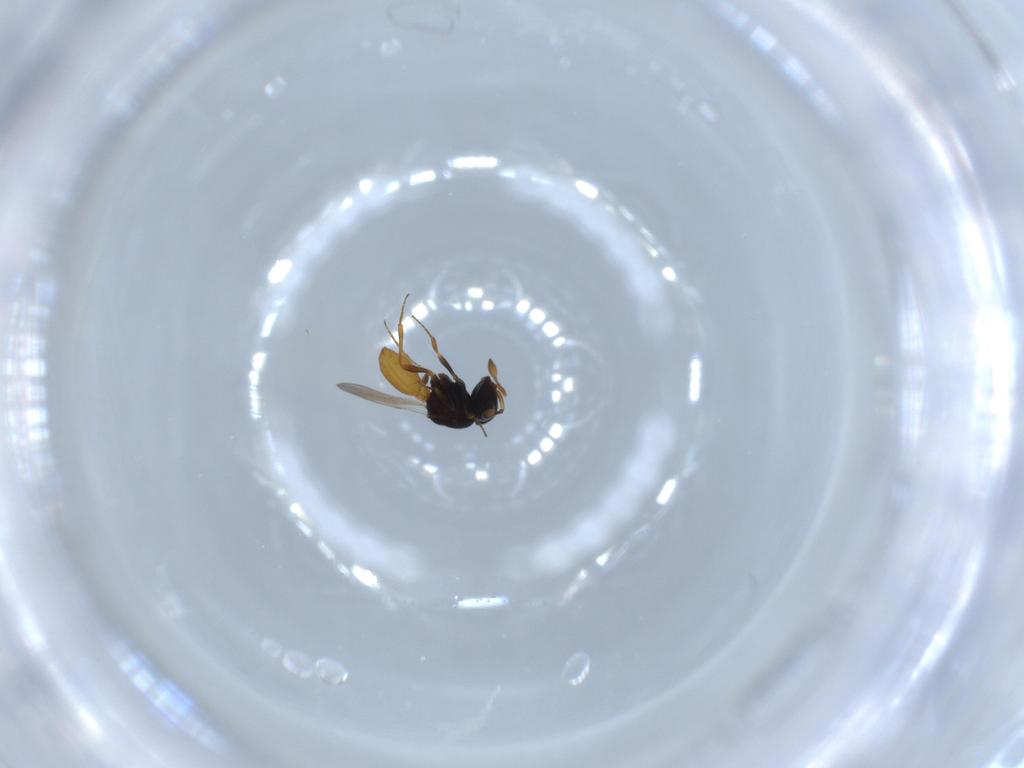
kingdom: Animalia
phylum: Arthropoda
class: Insecta
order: Hymenoptera
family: Scelionidae
